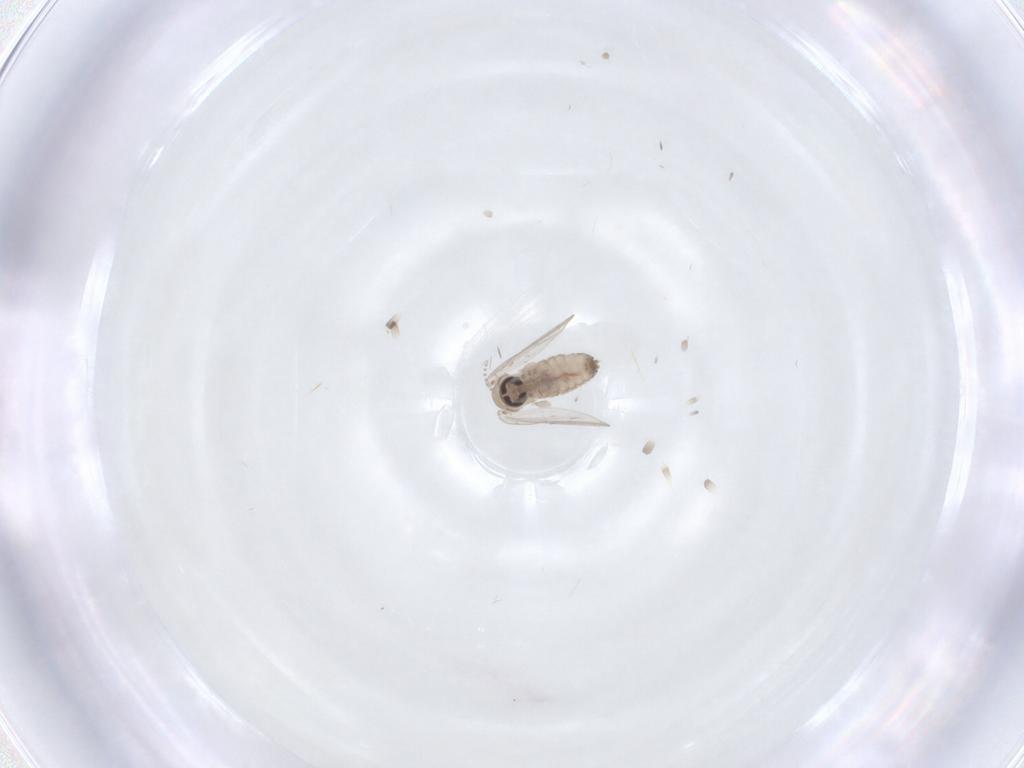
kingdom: Animalia
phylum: Arthropoda
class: Insecta
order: Diptera
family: Psychodidae
